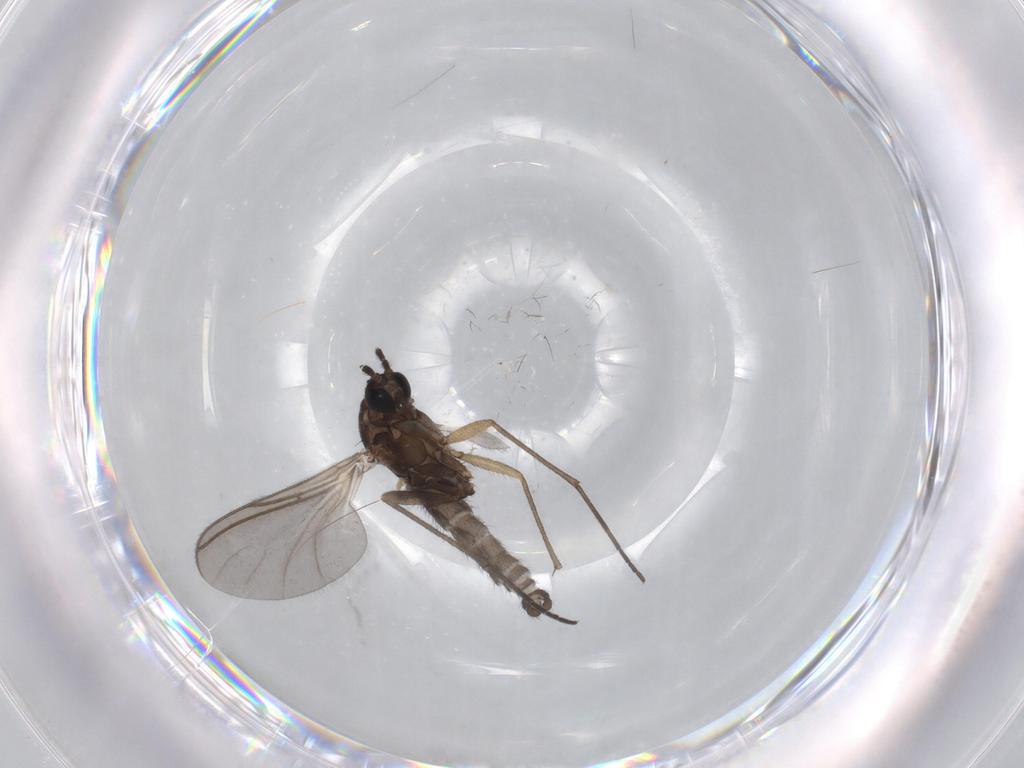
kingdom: Animalia
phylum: Arthropoda
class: Insecta
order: Diptera
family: Sciaridae
